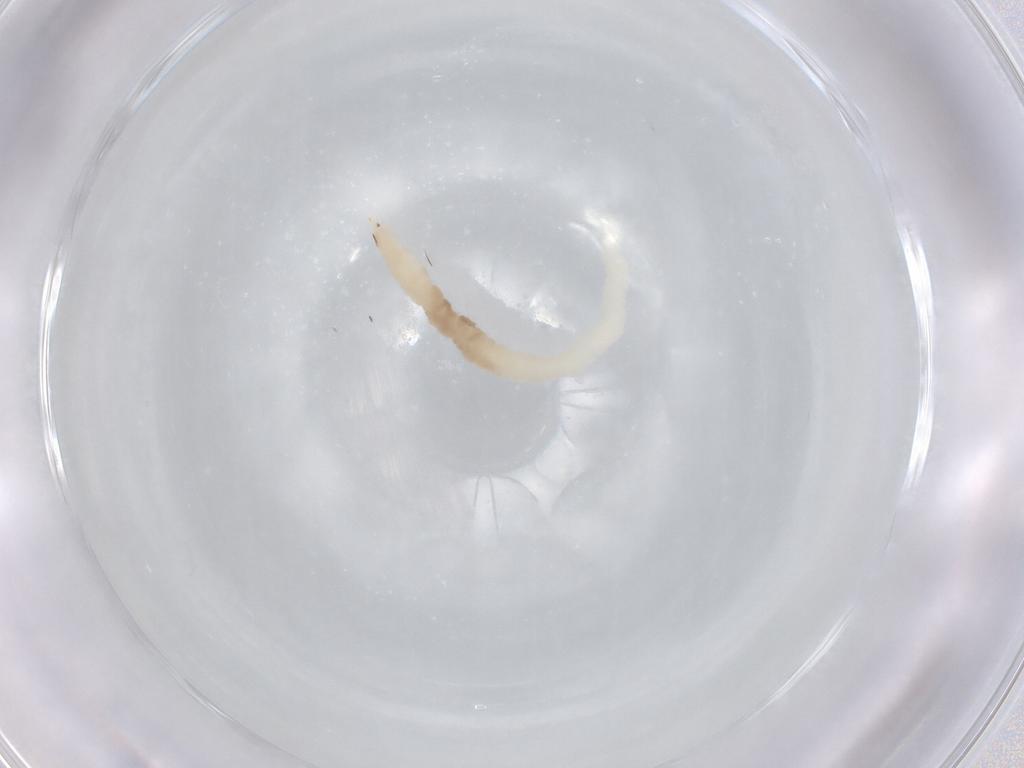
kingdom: Animalia
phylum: Arthropoda
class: Insecta
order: Diptera
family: Cecidomyiidae
